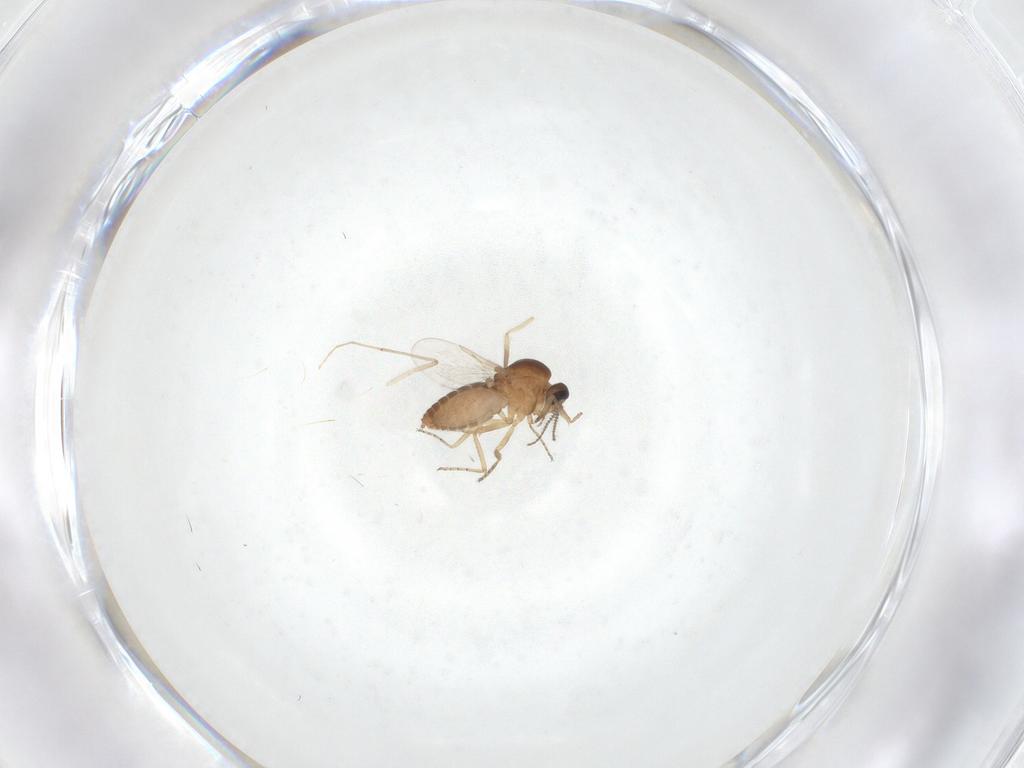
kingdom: Animalia
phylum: Arthropoda
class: Insecta
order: Diptera
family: Ceratopogonidae
